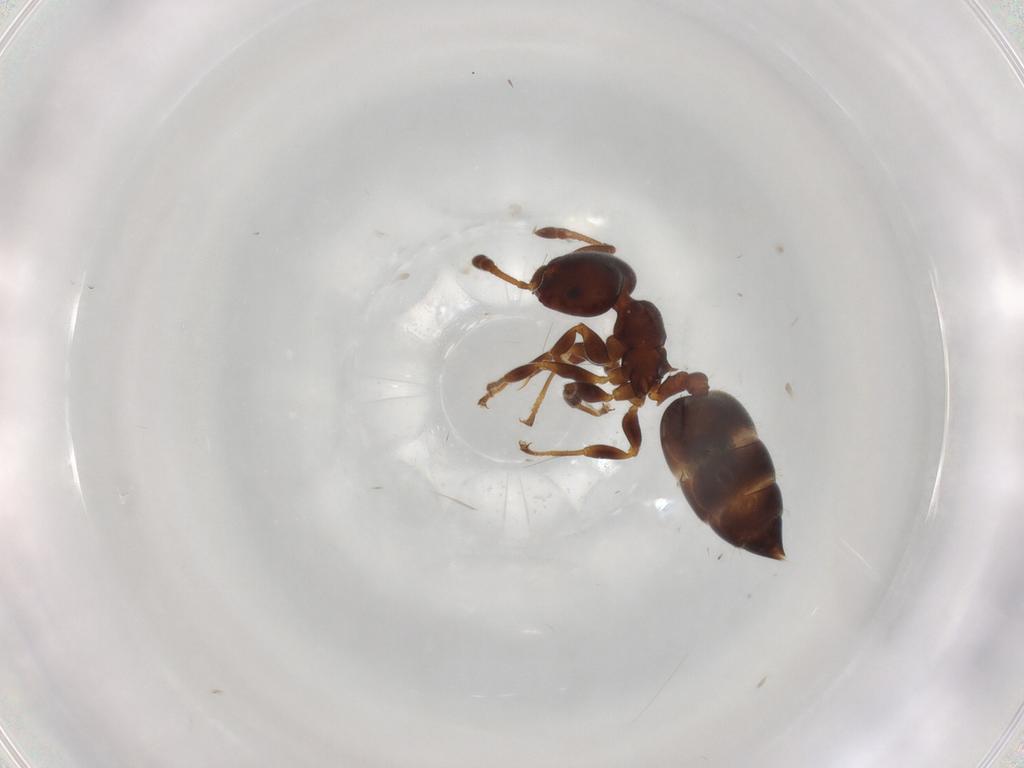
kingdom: Animalia
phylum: Arthropoda
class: Insecta
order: Hymenoptera
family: Formicidae
